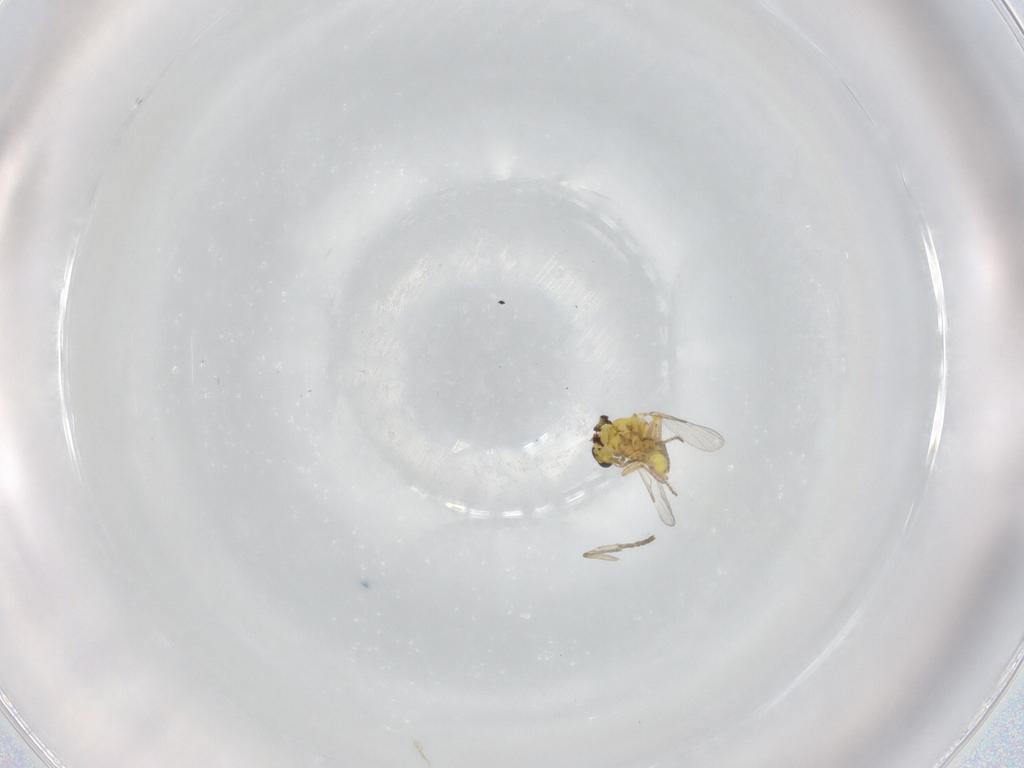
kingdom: Animalia
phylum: Arthropoda
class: Insecta
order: Diptera
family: Ceratopogonidae
